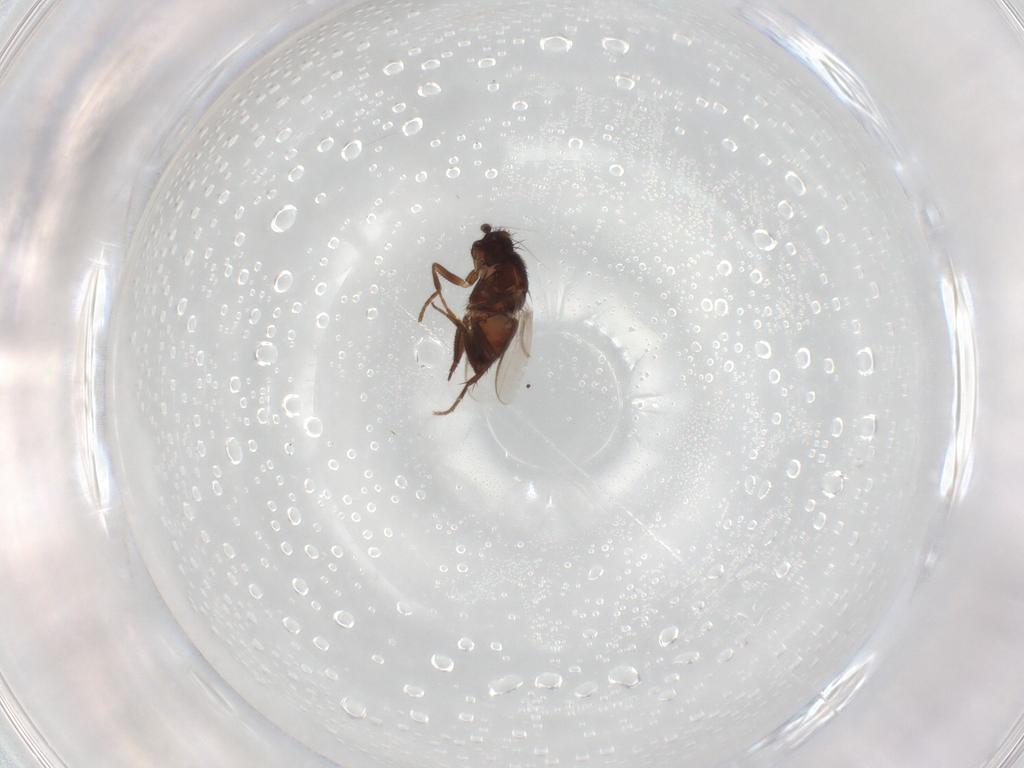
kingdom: Animalia
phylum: Arthropoda
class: Insecta
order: Diptera
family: Sphaeroceridae
